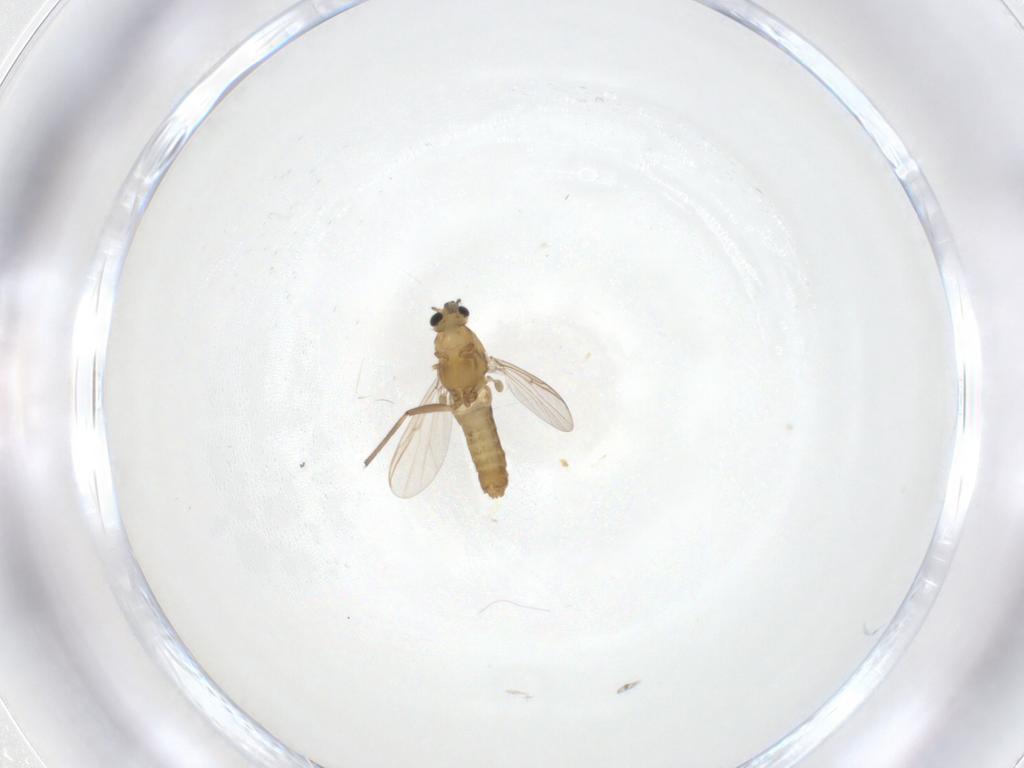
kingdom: Animalia
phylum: Arthropoda
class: Insecta
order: Diptera
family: Chironomidae
